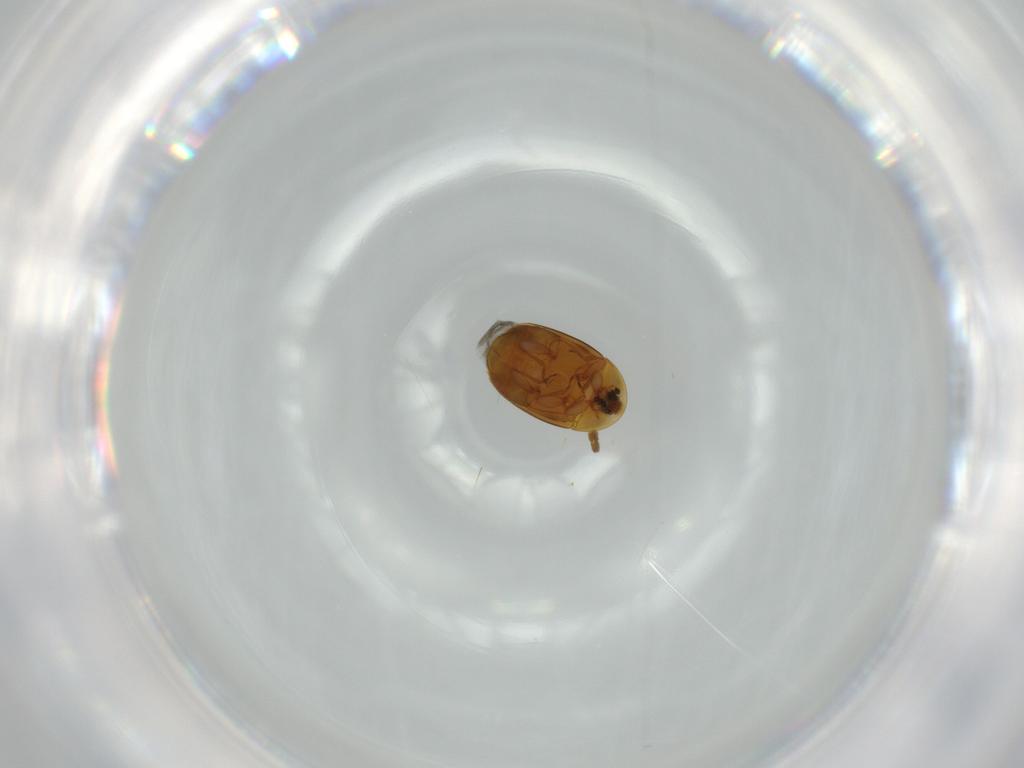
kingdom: Animalia
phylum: Arthropoda
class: Insecta
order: Coleoptera
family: Corylophidae
